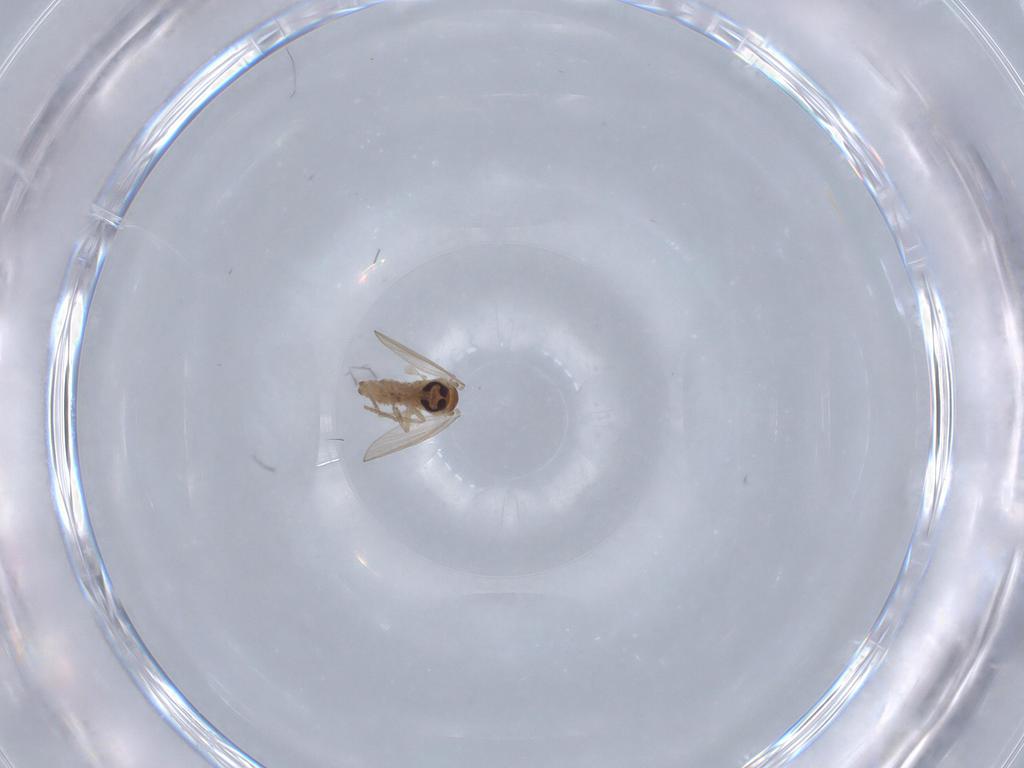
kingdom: Animalia
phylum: Arthropoda
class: Insecta
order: Diptera
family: Psychodidae
